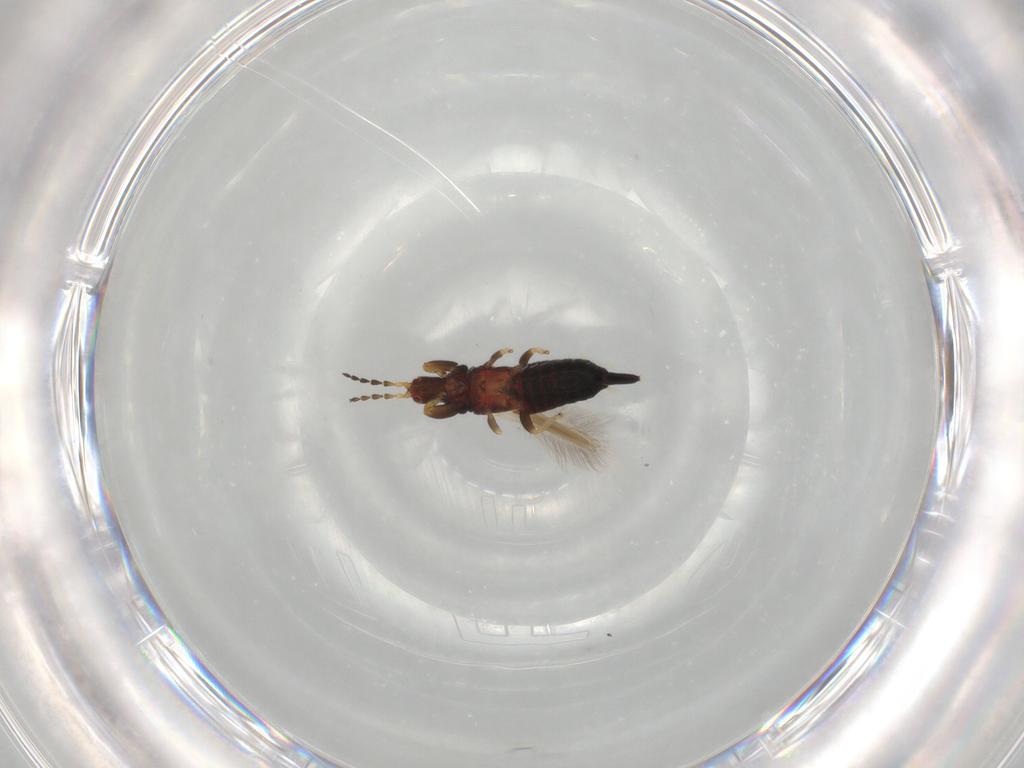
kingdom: Animalia
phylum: Arthropoda
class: Insecta
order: Thysanoptera
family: Phlaeothripidae
